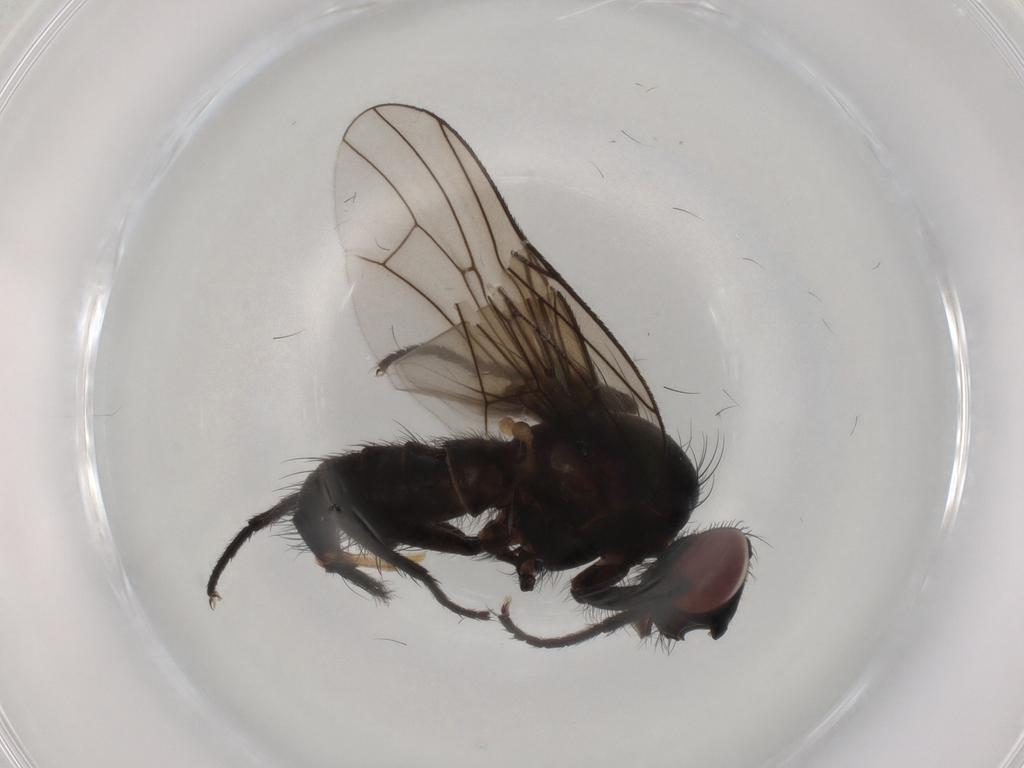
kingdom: Animalia
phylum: Arthropoda
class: Insecta
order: Diptera
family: Anthomyiidae
